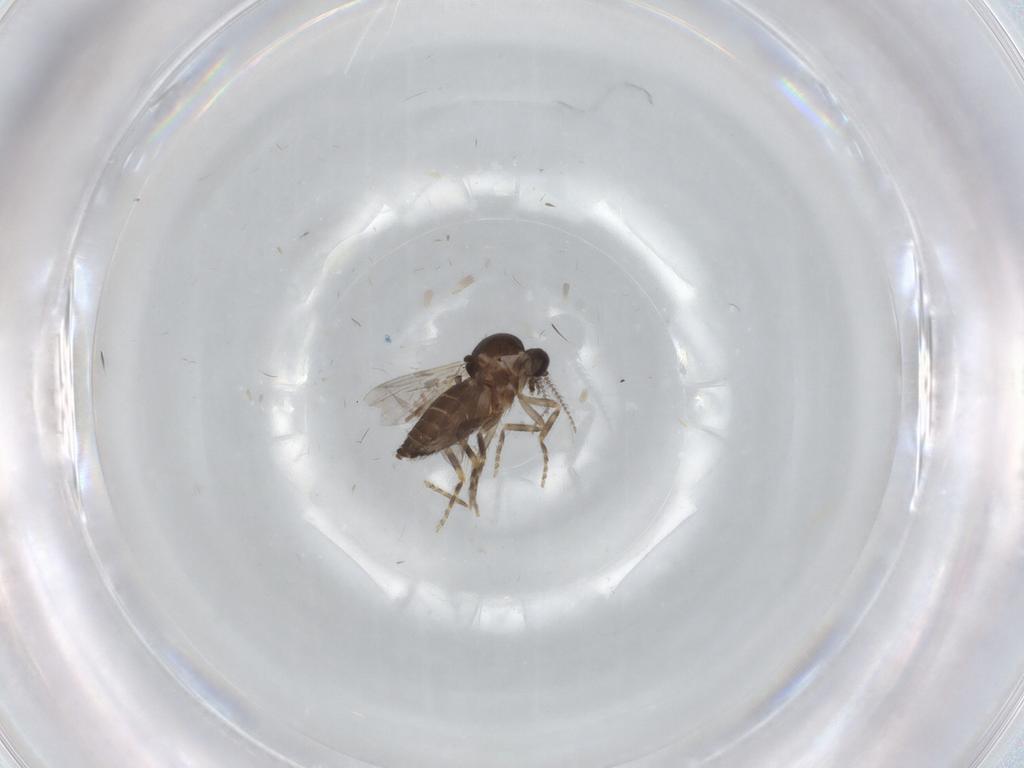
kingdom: Animalia
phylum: Arthropoda
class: Insecta
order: Diptera
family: Ceratopogonidae
